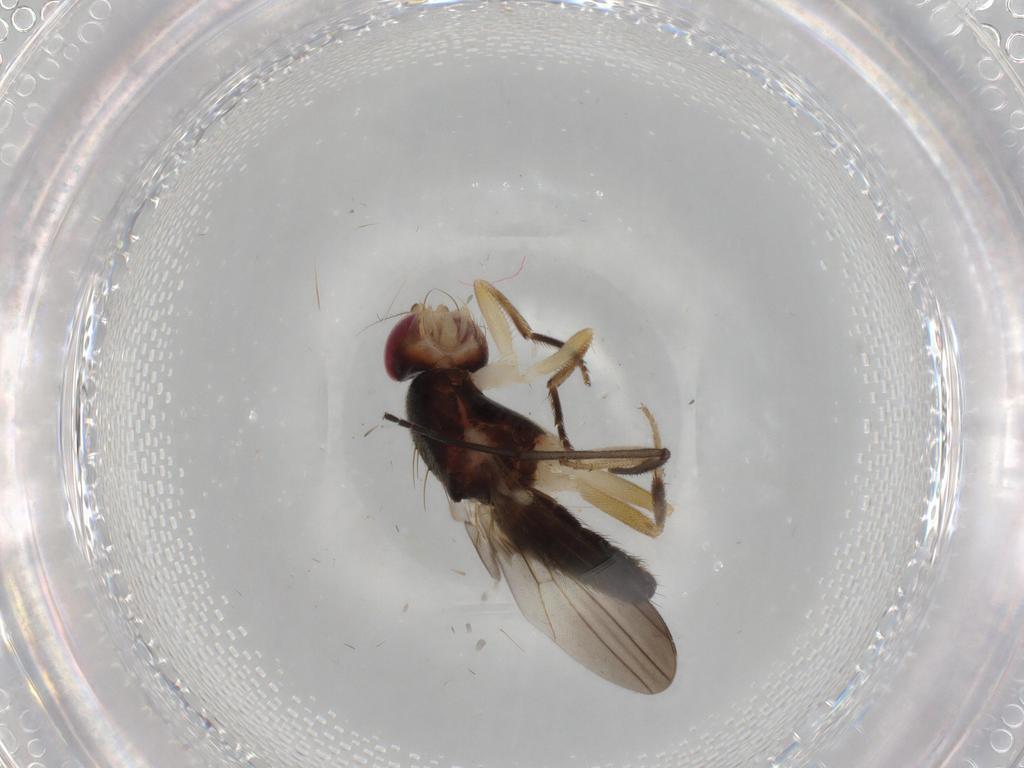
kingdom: Animalia
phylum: Arthropoda
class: Insecta
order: Diptera
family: Clusiidae
